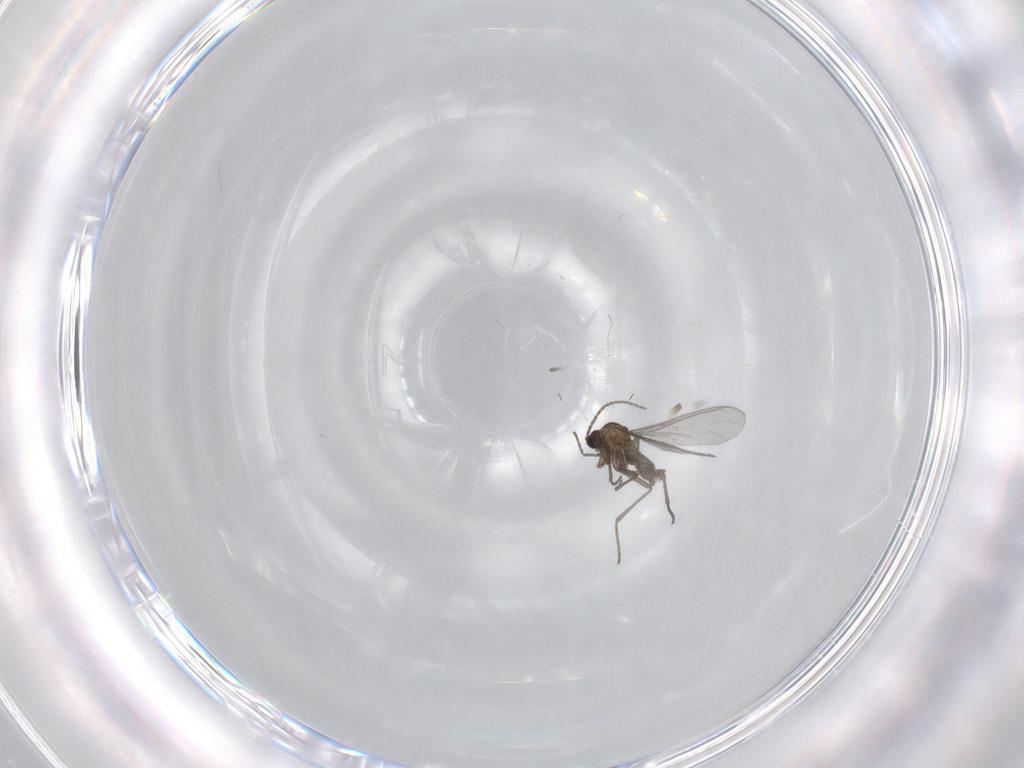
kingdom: Animalia
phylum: Arthropoda
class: Insecta
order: Diptera
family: Sciaridae
